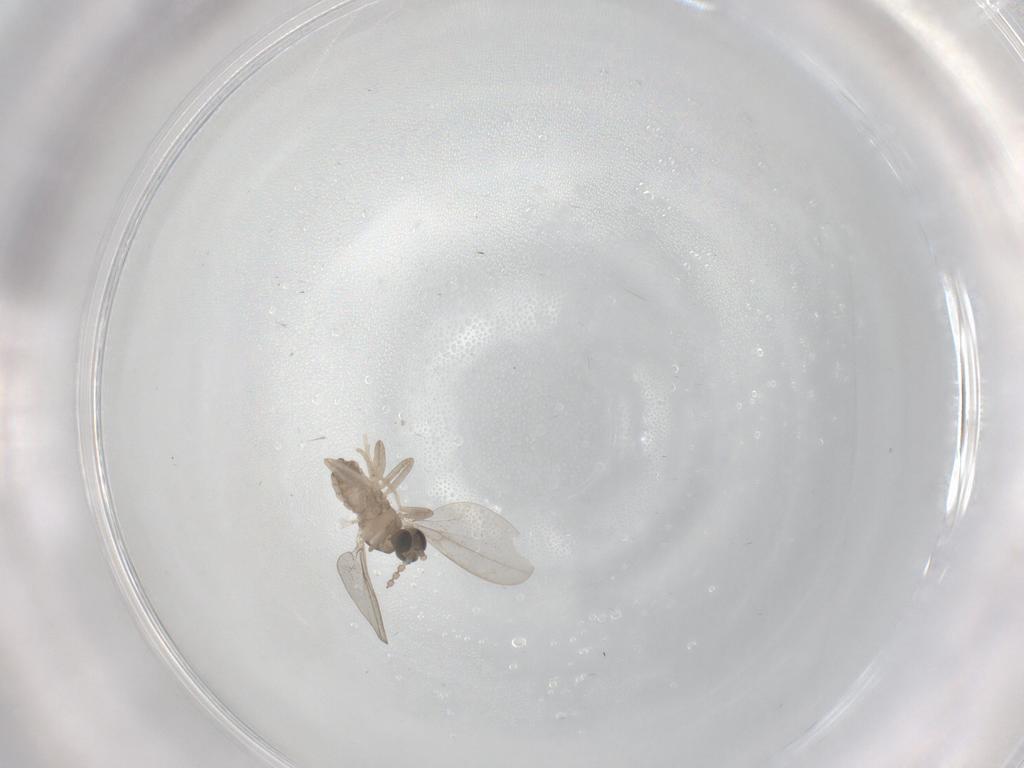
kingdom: Animalia
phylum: Arthropoda
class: Insecta
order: Diptera
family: Cecidomyiidae
